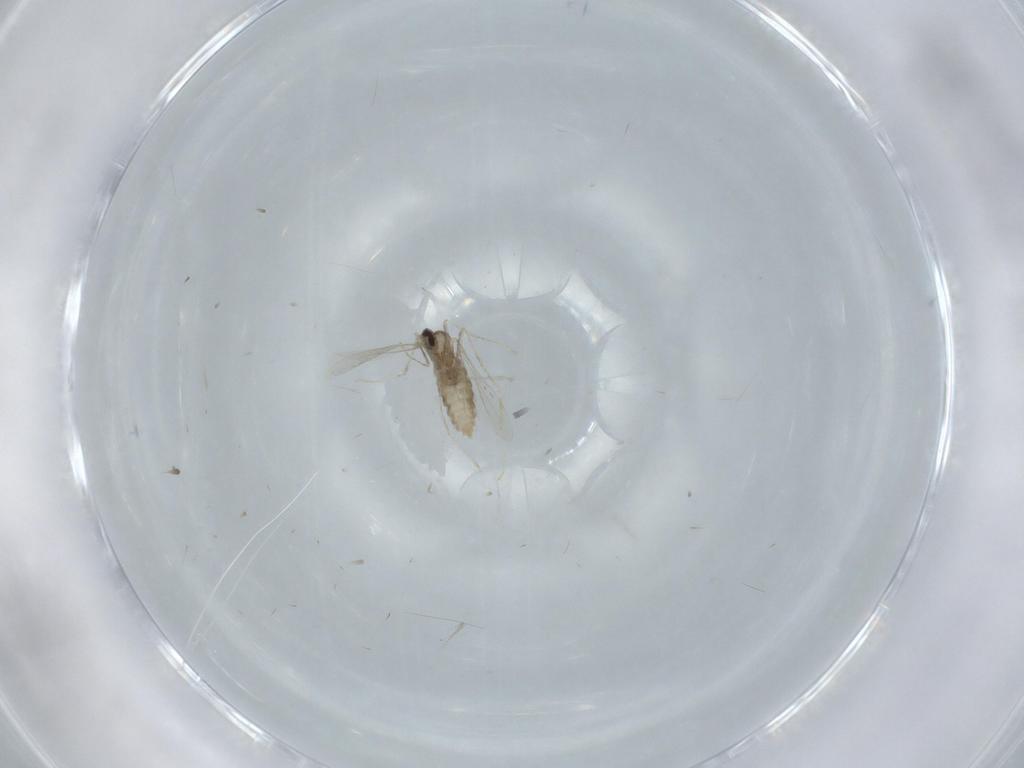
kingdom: Animalia
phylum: Arthropoda
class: Insecta
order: Diptera
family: Cecidomyiidae
